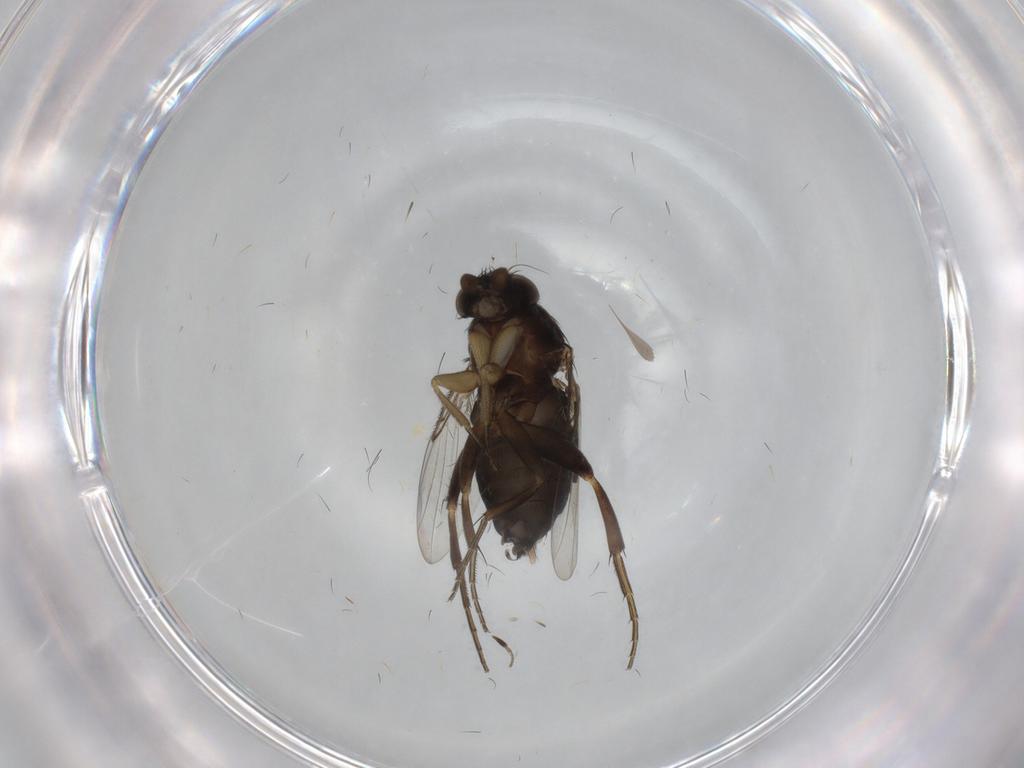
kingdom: Animalia
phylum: Arthropoda
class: Insecta
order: Diptera
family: Phoridae
